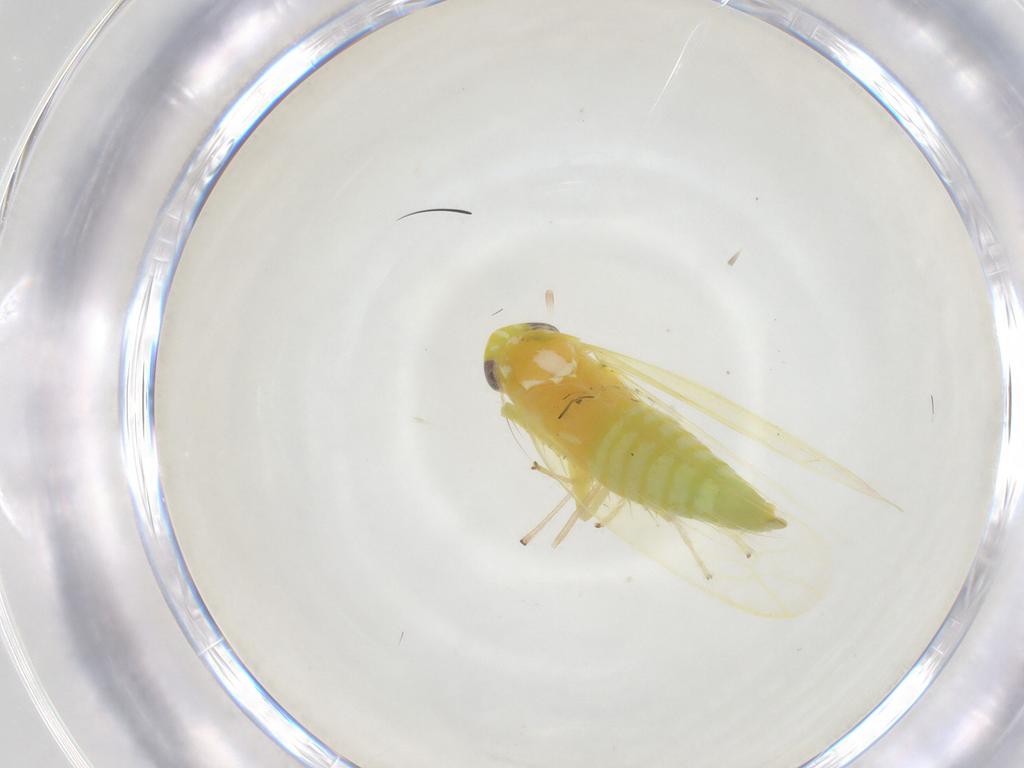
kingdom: Animalia
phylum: Arthropoda
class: Insecta
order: Hemiptera
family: Cicadellidae
